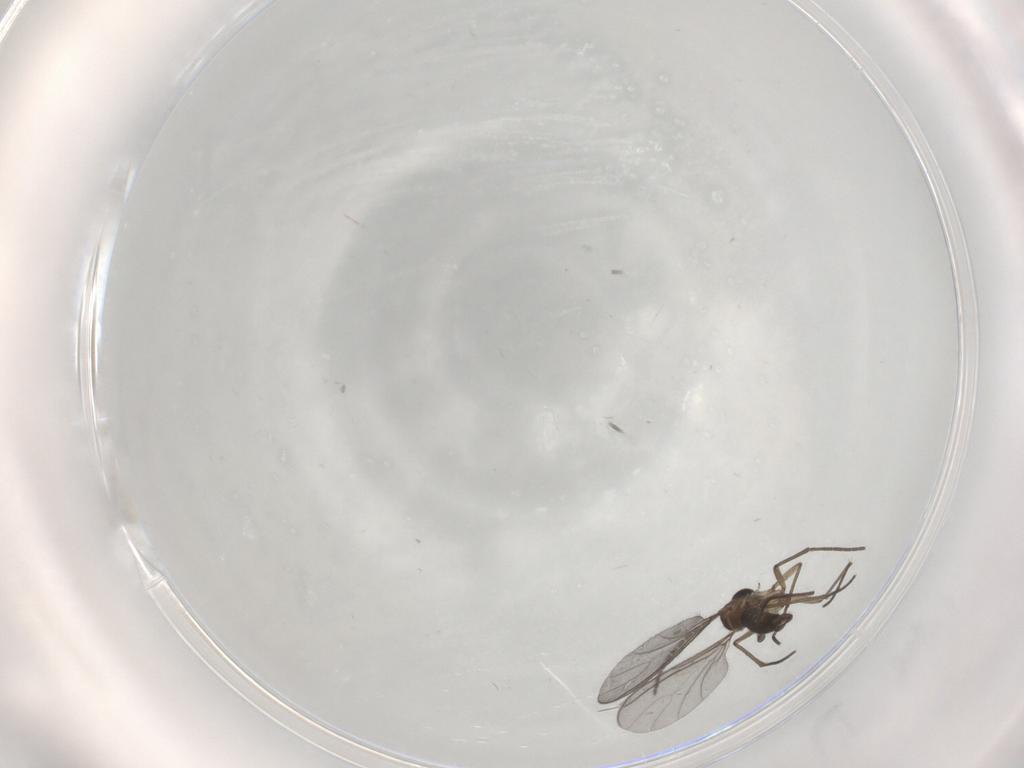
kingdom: Animalia
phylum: Arthropoda
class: Insecta
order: Diptera
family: Sciaridae
